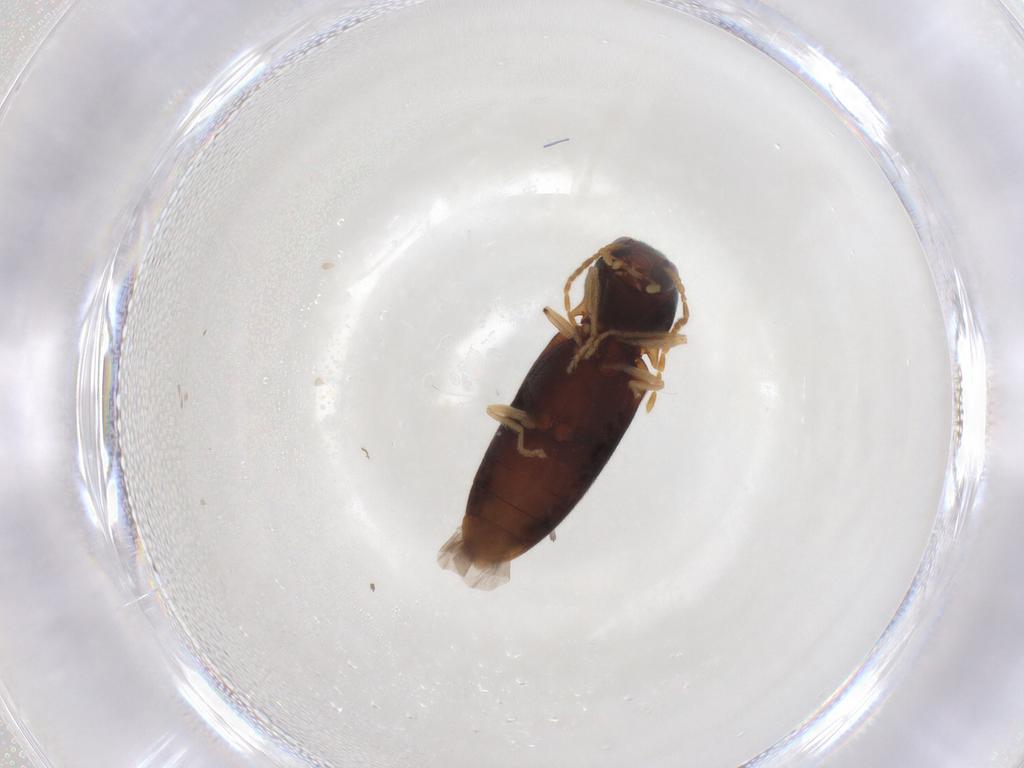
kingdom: Animalia
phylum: Arthropoda
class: Insecta
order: Coleoptera
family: Elateridae
